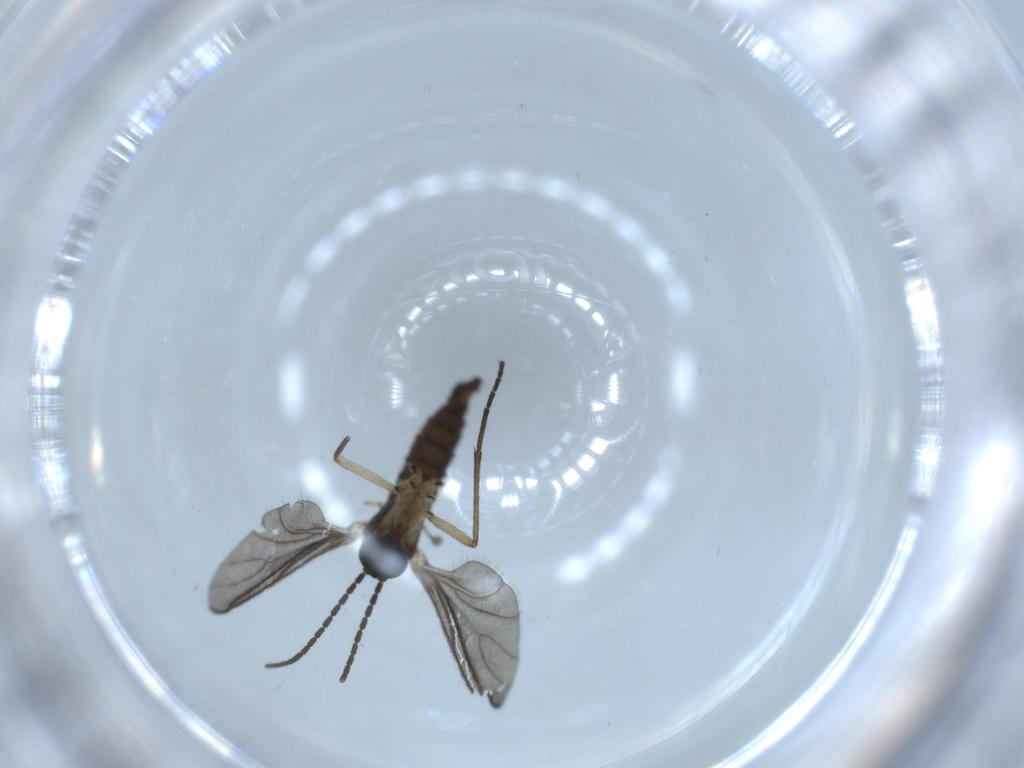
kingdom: Animalia
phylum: Arthropoda
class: Insecta
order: Diptera
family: Sciaridae
